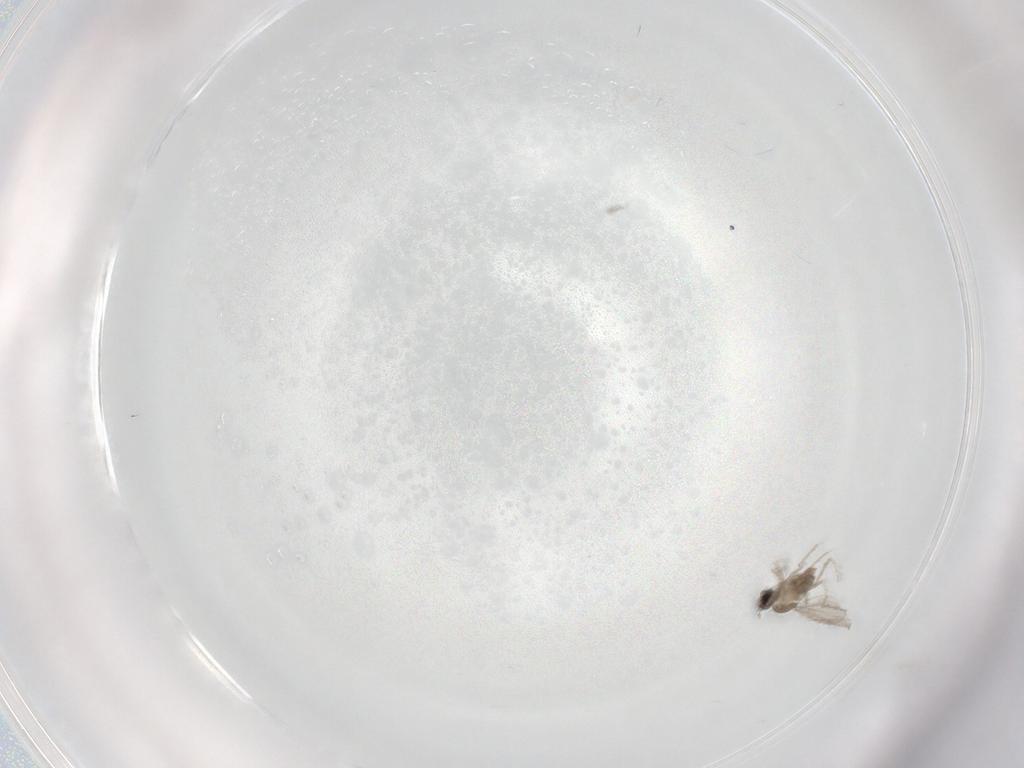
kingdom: Animalia
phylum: Arthropoda
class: Insecta
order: Diptera
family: Cecidomyiidae
